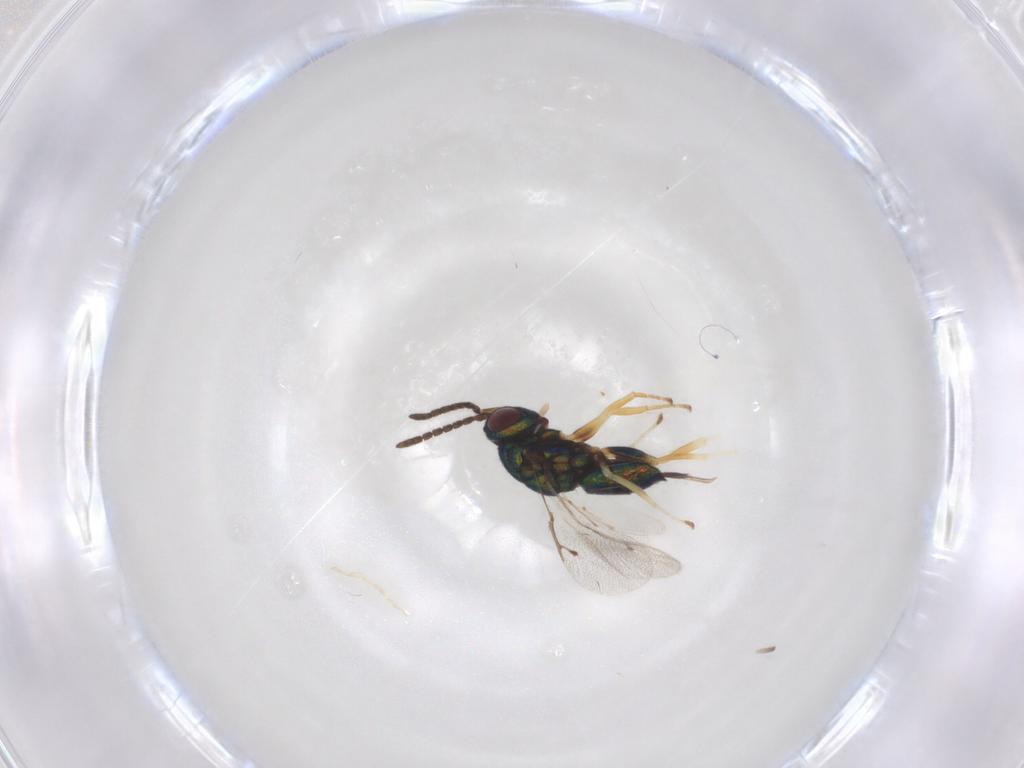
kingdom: Animalia
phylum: Arthropoda
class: Insecta
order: Hymenoptera
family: Pteromalidae
